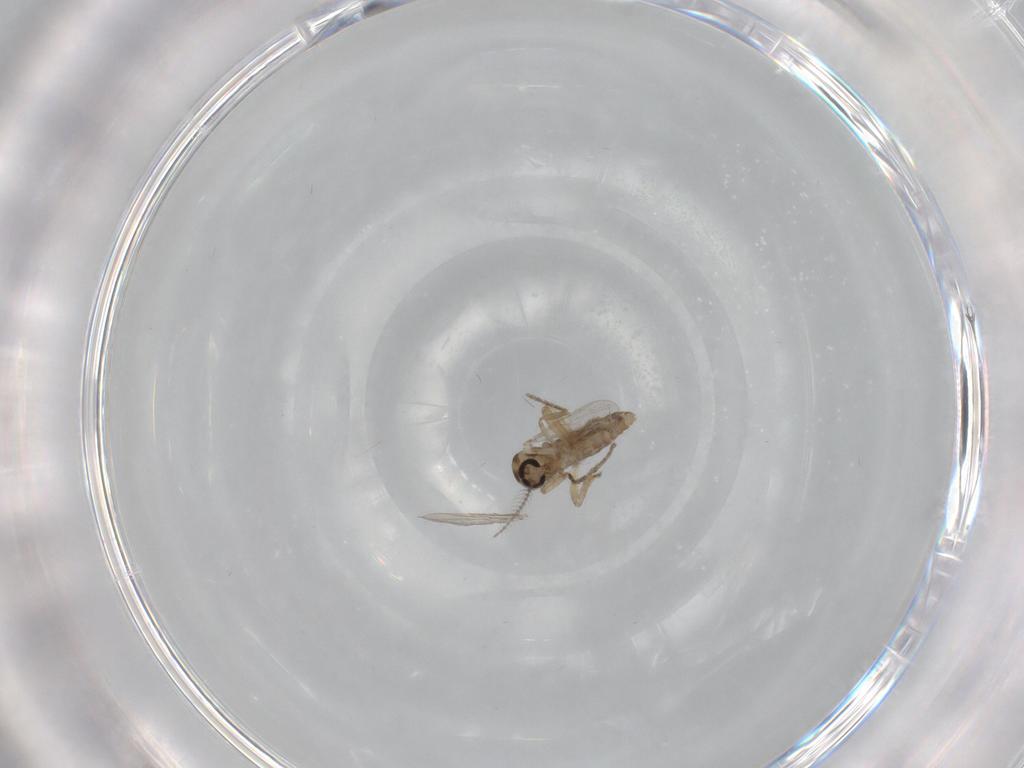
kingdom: Animalia
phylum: Arthropoda
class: Insecta
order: Diptera
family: Ceratopogonidae
